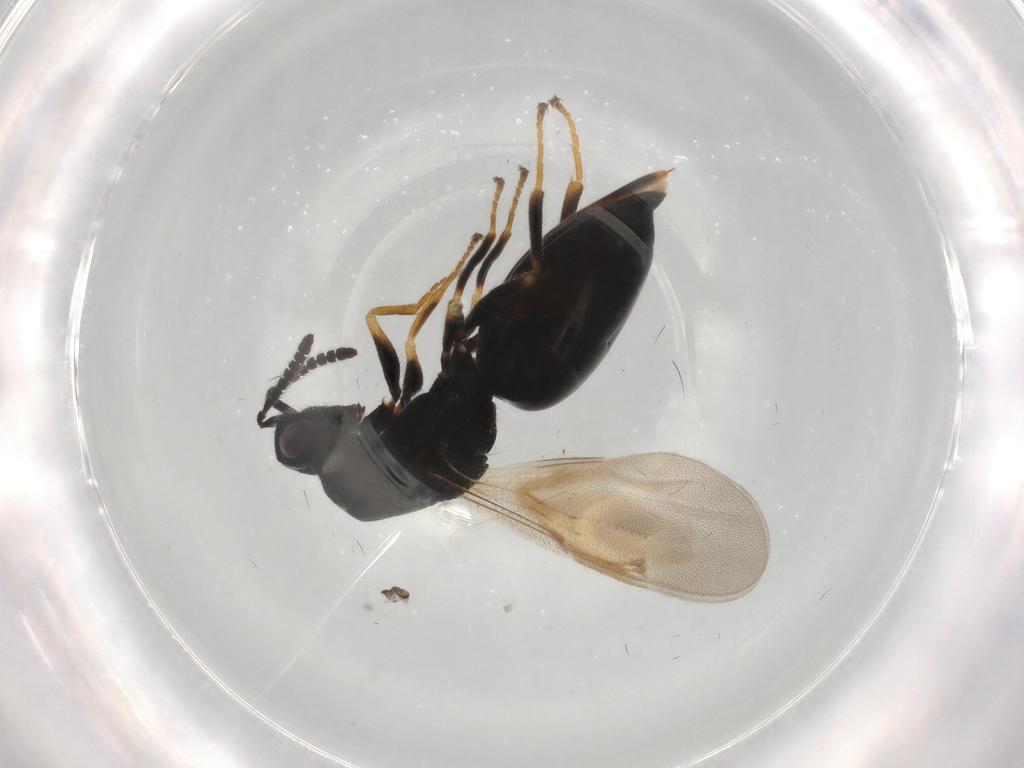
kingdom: Animalia
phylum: Arthropoda
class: Insecta
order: Hymenoptera
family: Eurytomidae
